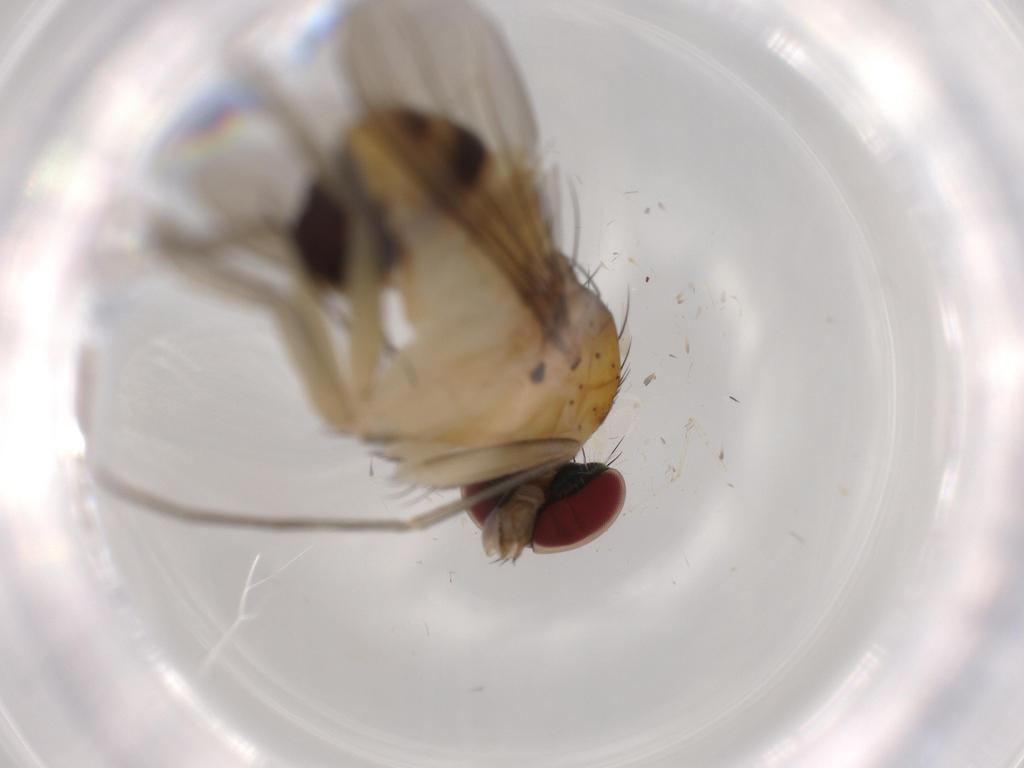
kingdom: Animalia
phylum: Arthropoda
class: Insecta
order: Diptera
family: Dolichopodidae
